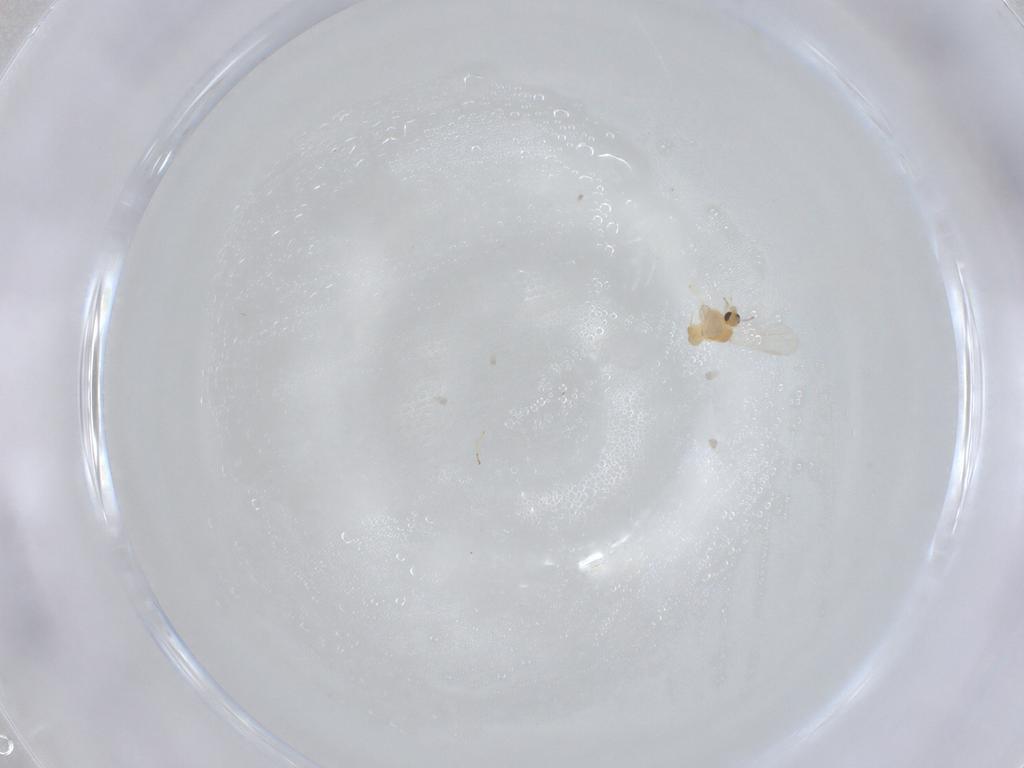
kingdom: Animalia
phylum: Arthropoda
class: Insecta
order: Diptera
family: Chironomidae
